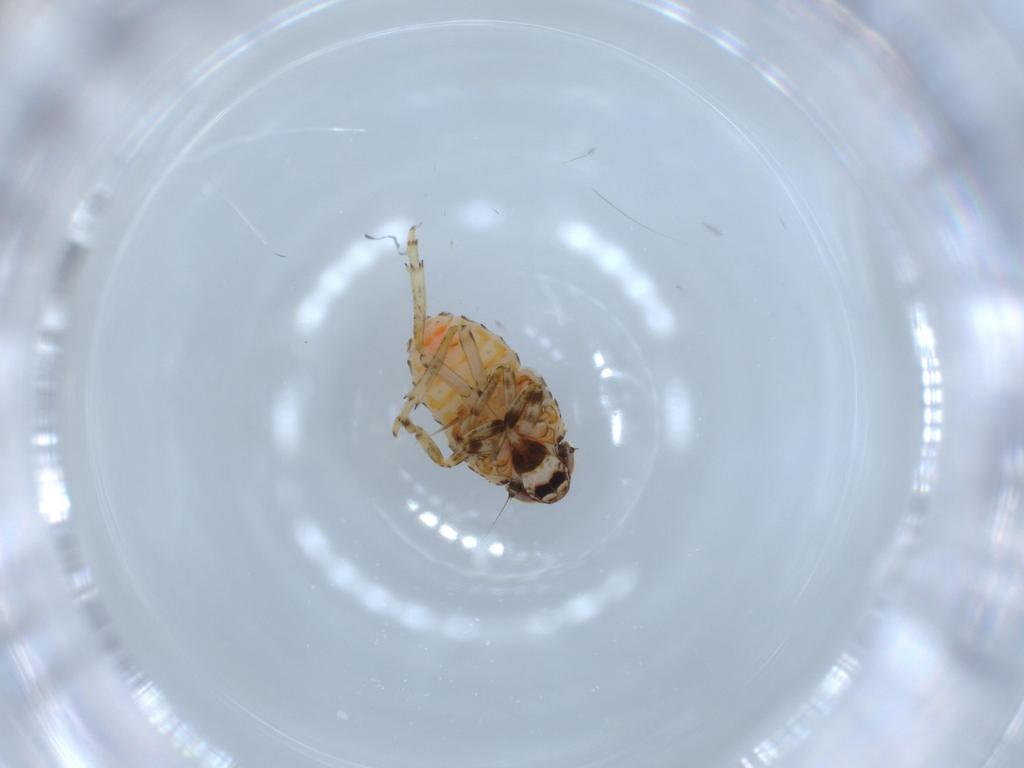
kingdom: Animalia
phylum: Arthropoda
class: Insecta
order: Hemiptera
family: Issidae
